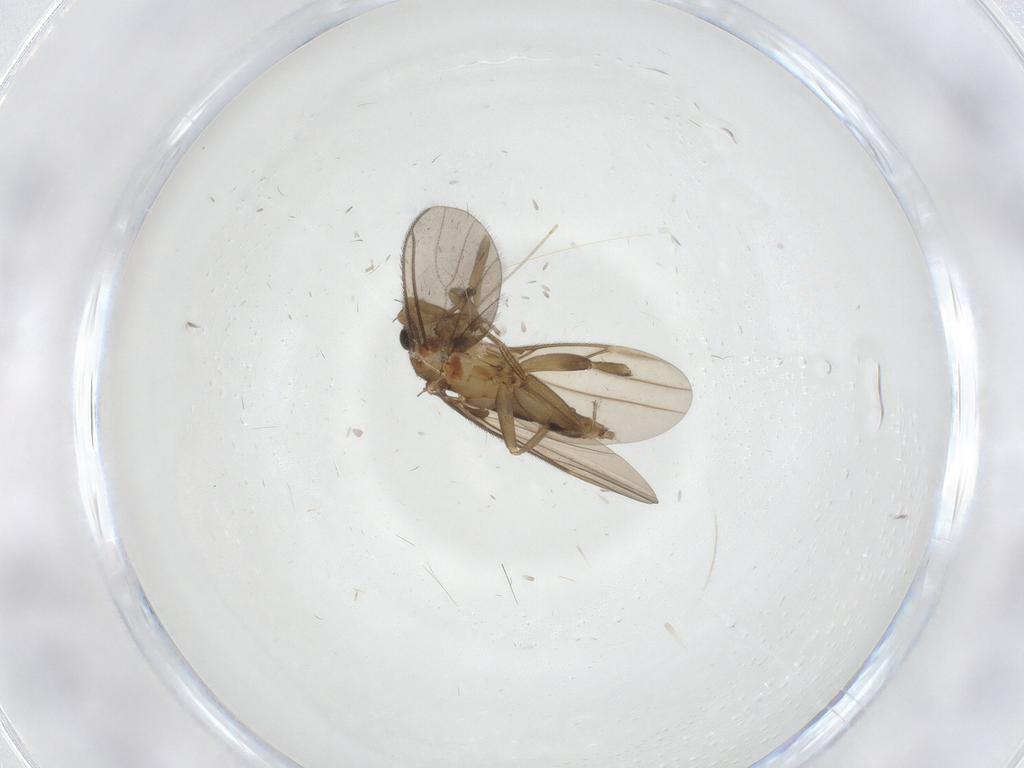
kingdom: Animalia
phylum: Arthropoda
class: Insecta
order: Diptera
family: Cecidomyiidae
